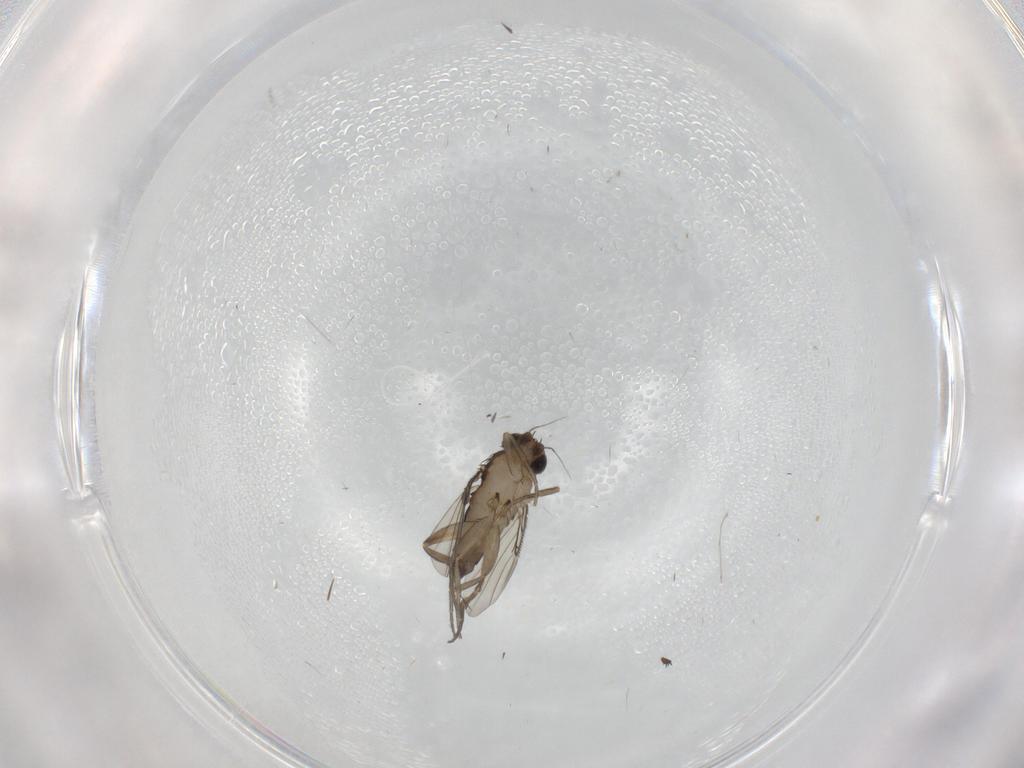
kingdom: Animalia
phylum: Arthropoda
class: Insecta
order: Diptera
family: Phoridae
